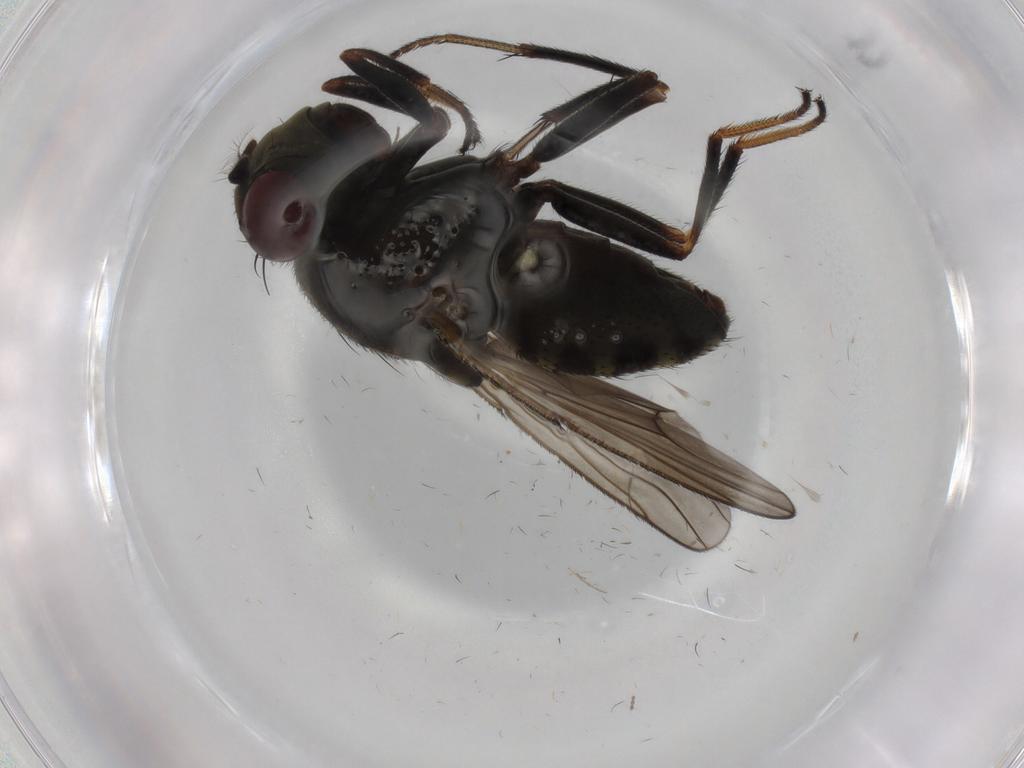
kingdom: Animalia
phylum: Arthropoda
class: Insecta
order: Diptera
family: Ephydridae
